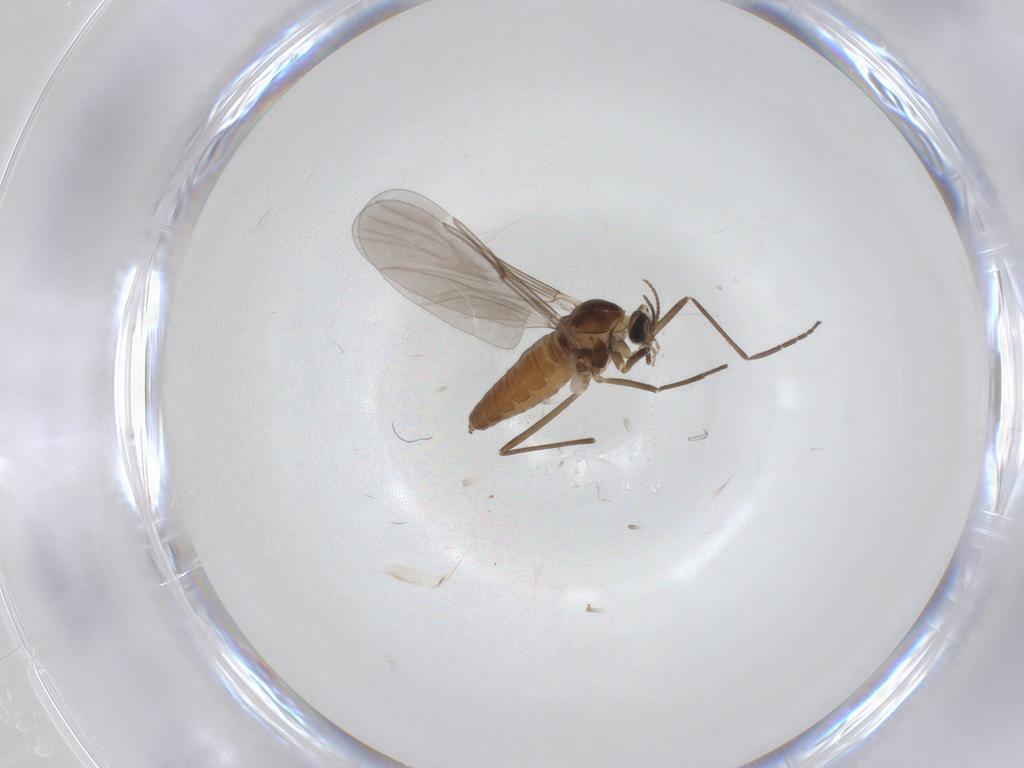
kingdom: Animalia
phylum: Arthropoda
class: Insecta
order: Diptera
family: Cecidomyiidae
